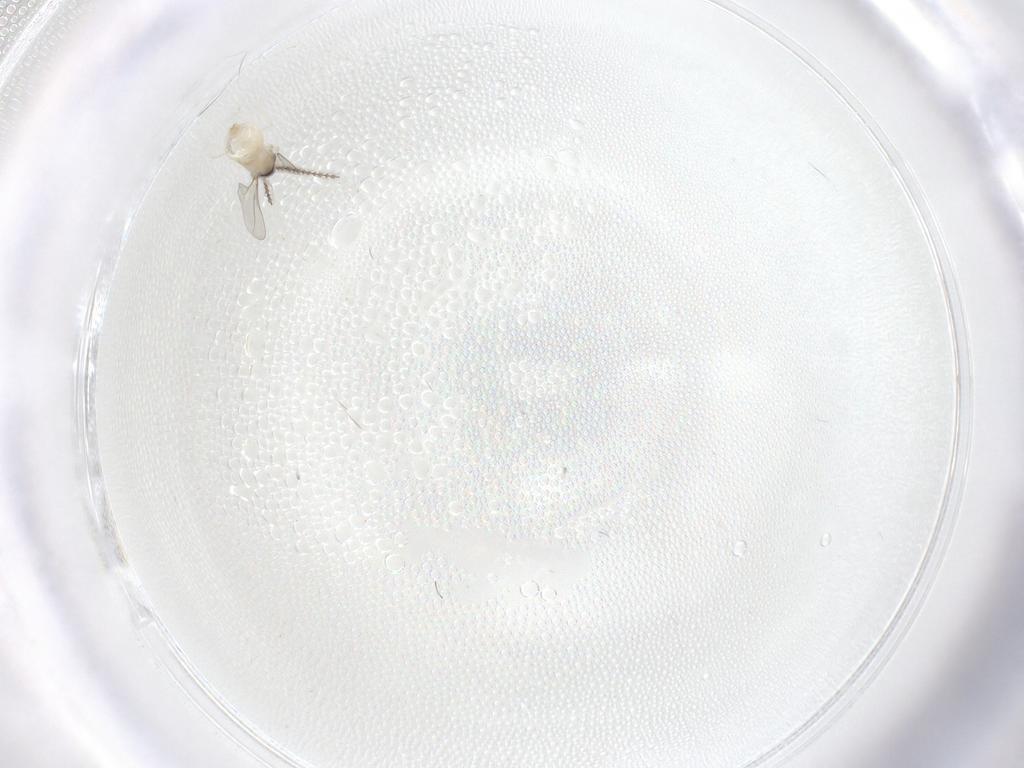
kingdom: Animalia
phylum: Arthropoda
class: Insecta
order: Diptera
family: Cecidomyiidae
